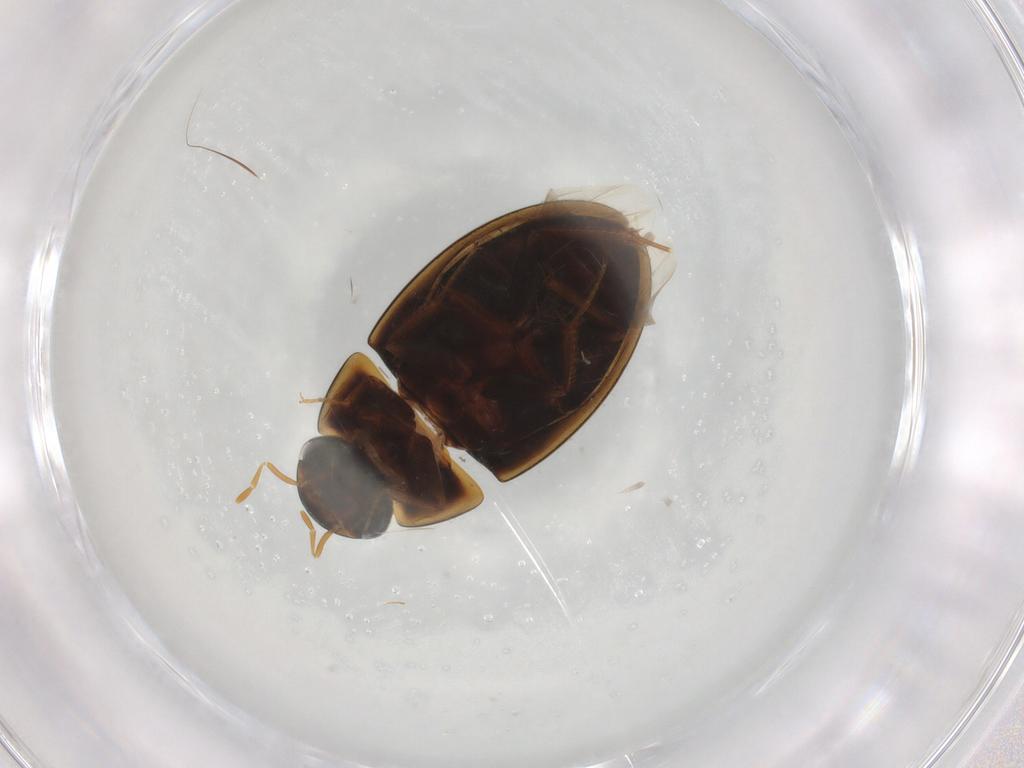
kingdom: Animalia
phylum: Arthropoda
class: Insecta
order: Coleoptera
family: Hydrophilidae
